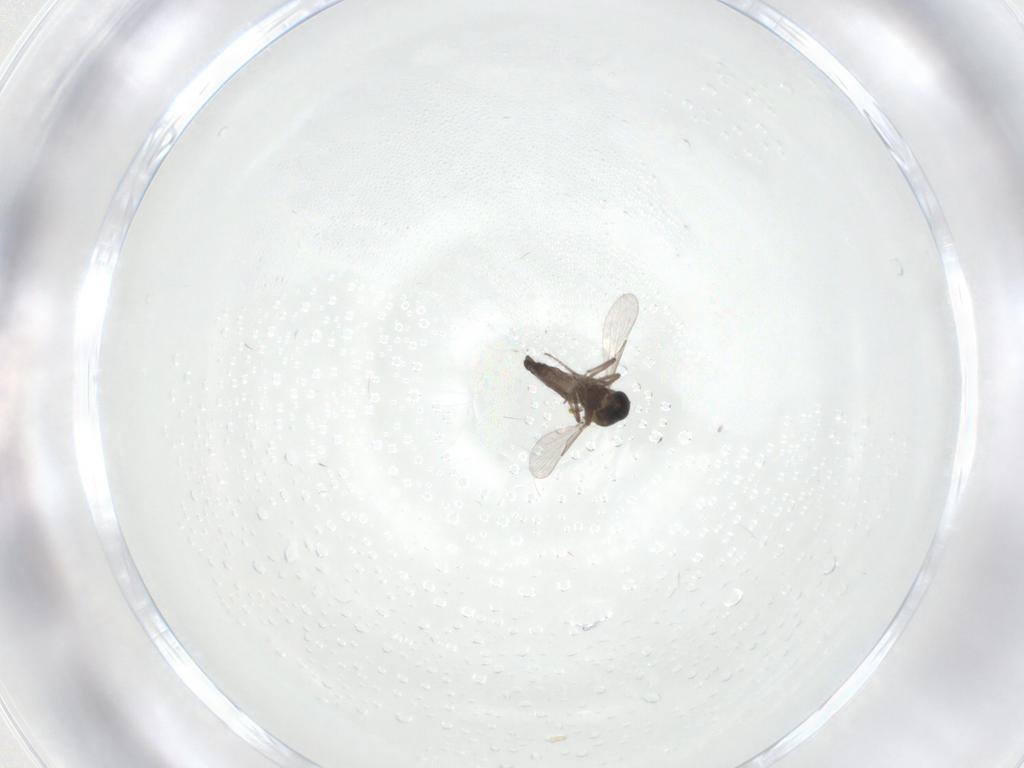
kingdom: Animalia
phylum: Arthropoda
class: Insecta
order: Diptera
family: Ceratopogonidae
